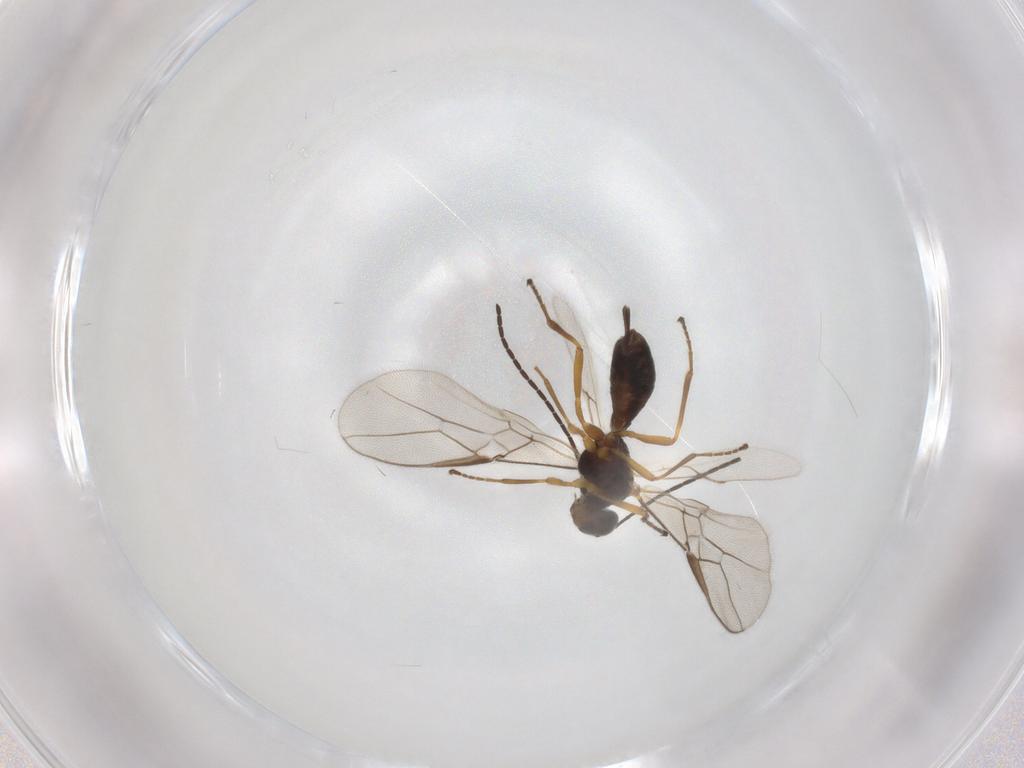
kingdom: Animalia
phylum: Arthropoda
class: Insecta
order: Hymenoptera
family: Braconidae
